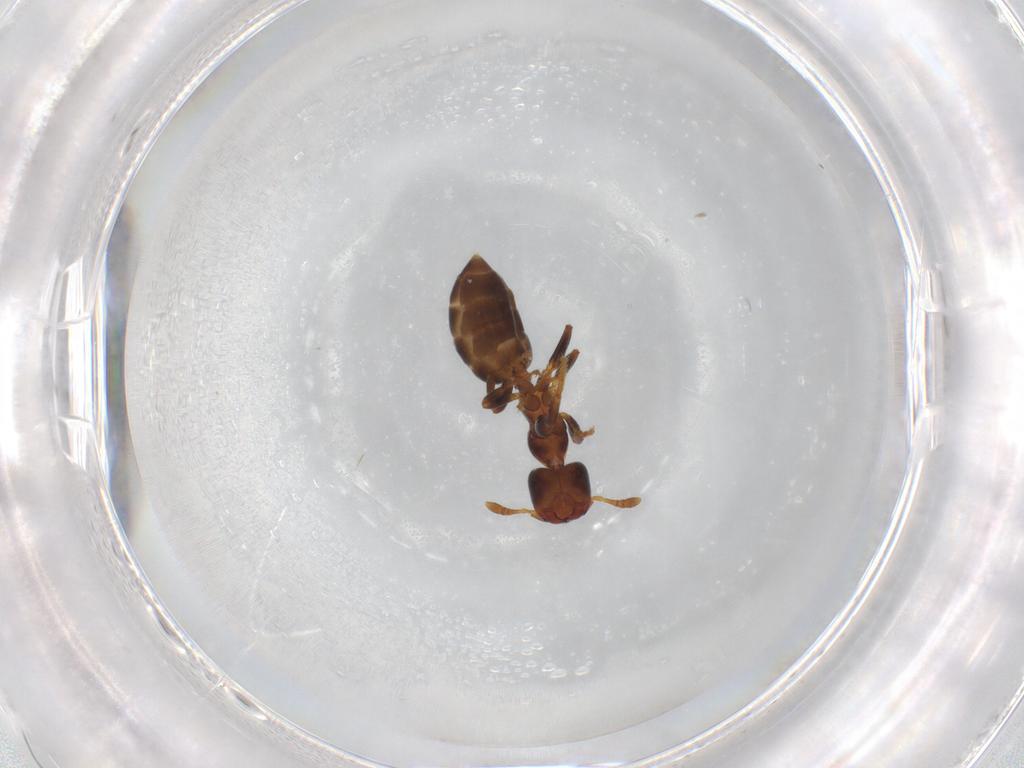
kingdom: Animalia
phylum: Arthropoda
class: Insecta
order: Hymenoptera
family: Formicidae
